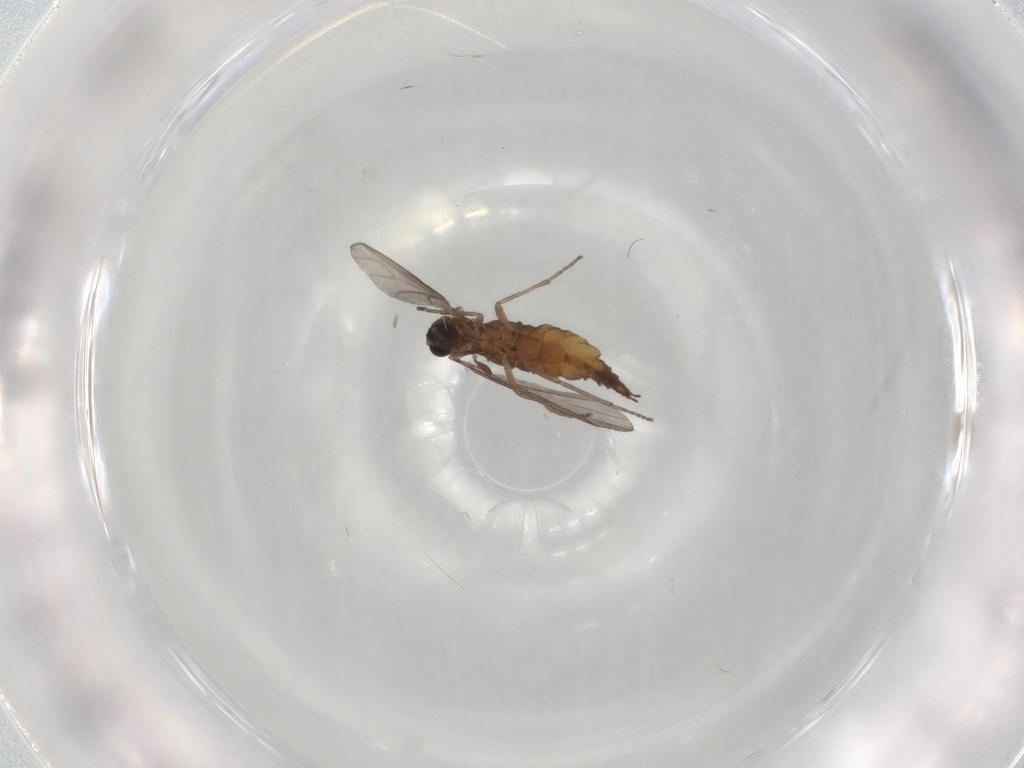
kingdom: Animalia
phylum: Arthropoda
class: Insecta
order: Diptera
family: Sciaridae
